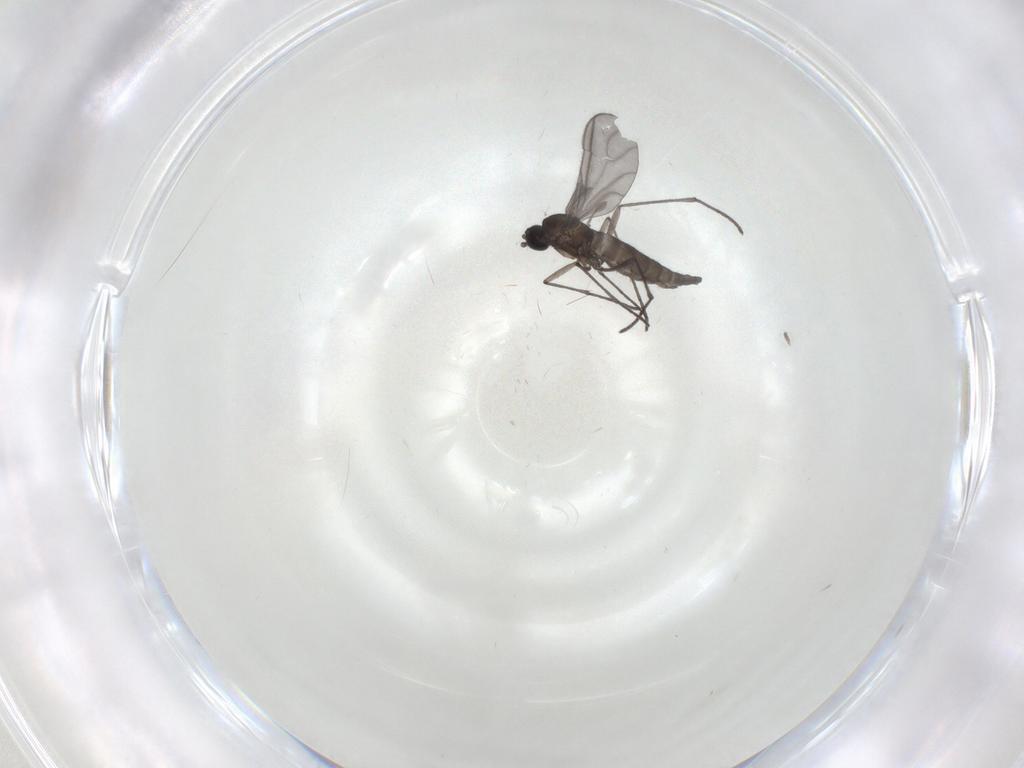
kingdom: Animalia
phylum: Arthropoda
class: Insecta
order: Diptera
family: Sciaridae
